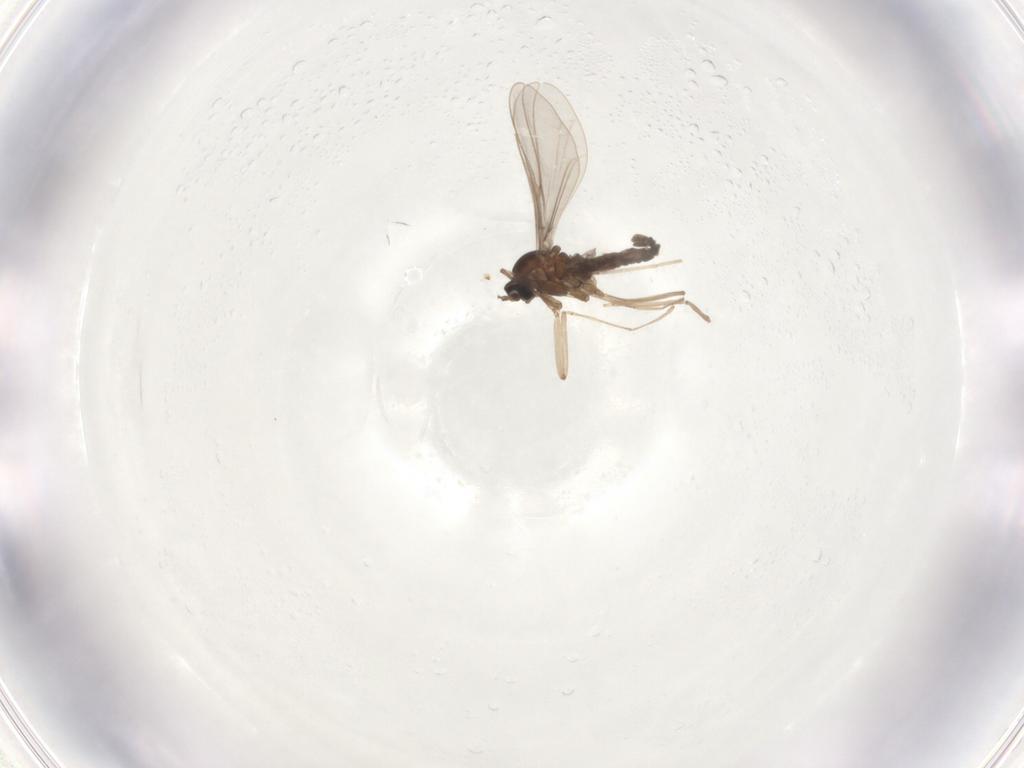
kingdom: Animalia
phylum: Arthropoda
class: Insecta
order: Diptera
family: Cecidomyiidae
